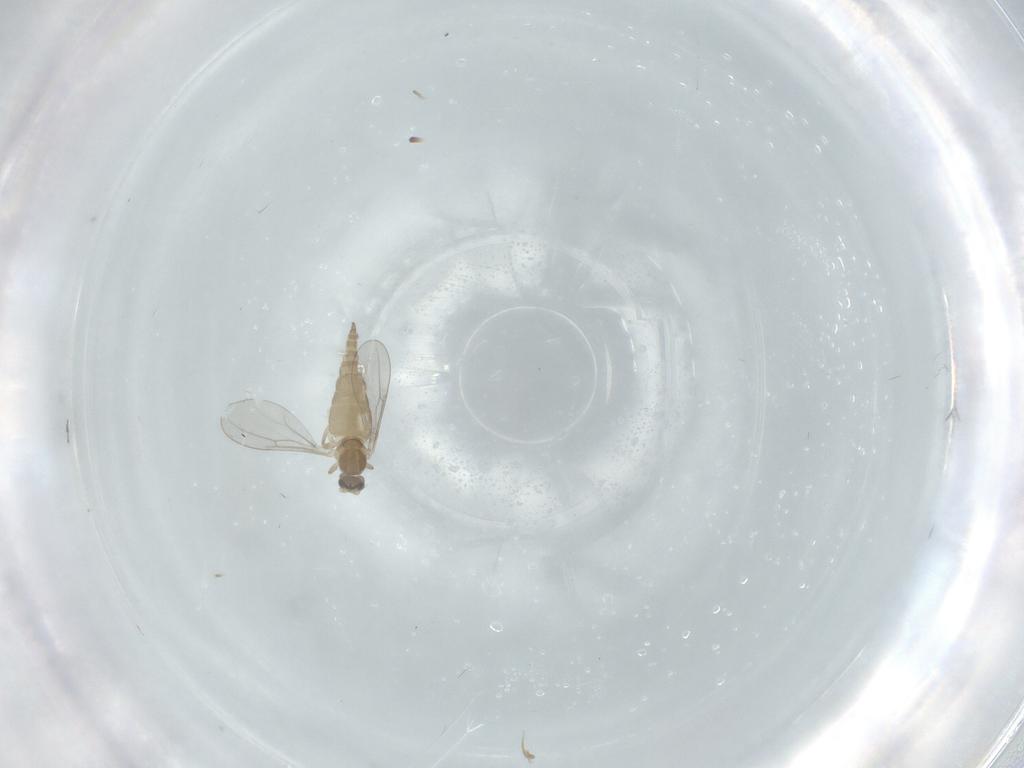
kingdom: Animalia
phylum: Arthropoda
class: Insecta
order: Diptera
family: Cecidomyiidae
